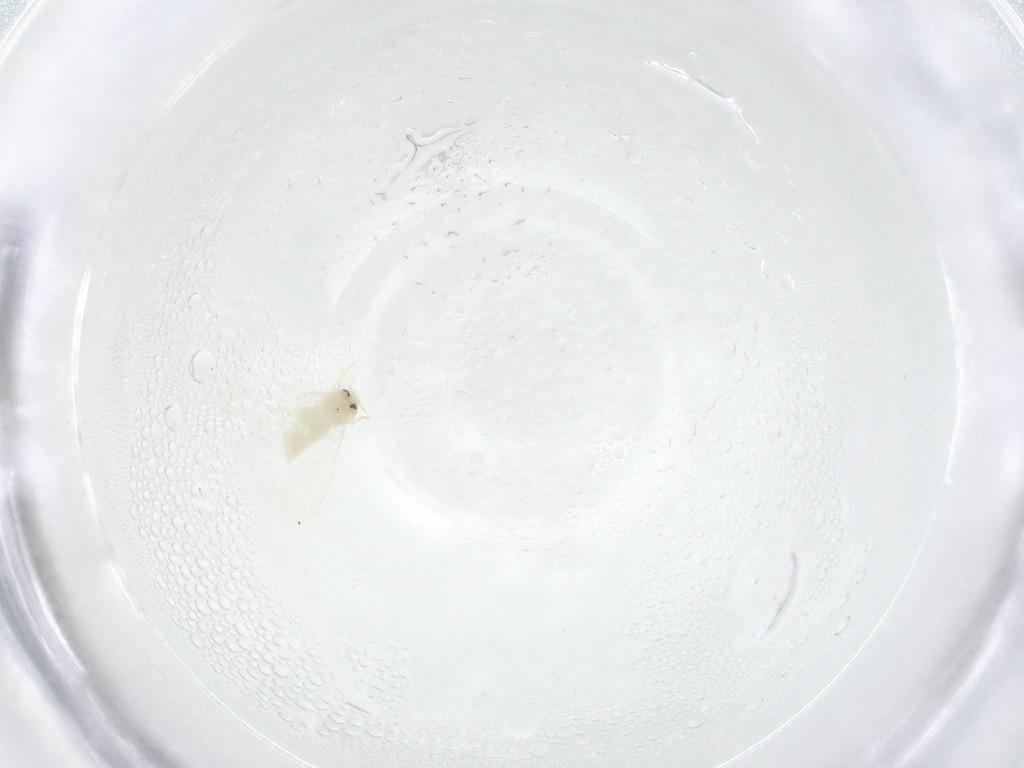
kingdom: Animalia
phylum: Arthropoda
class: Insecta
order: Hemiptera
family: Aleyrodidae
